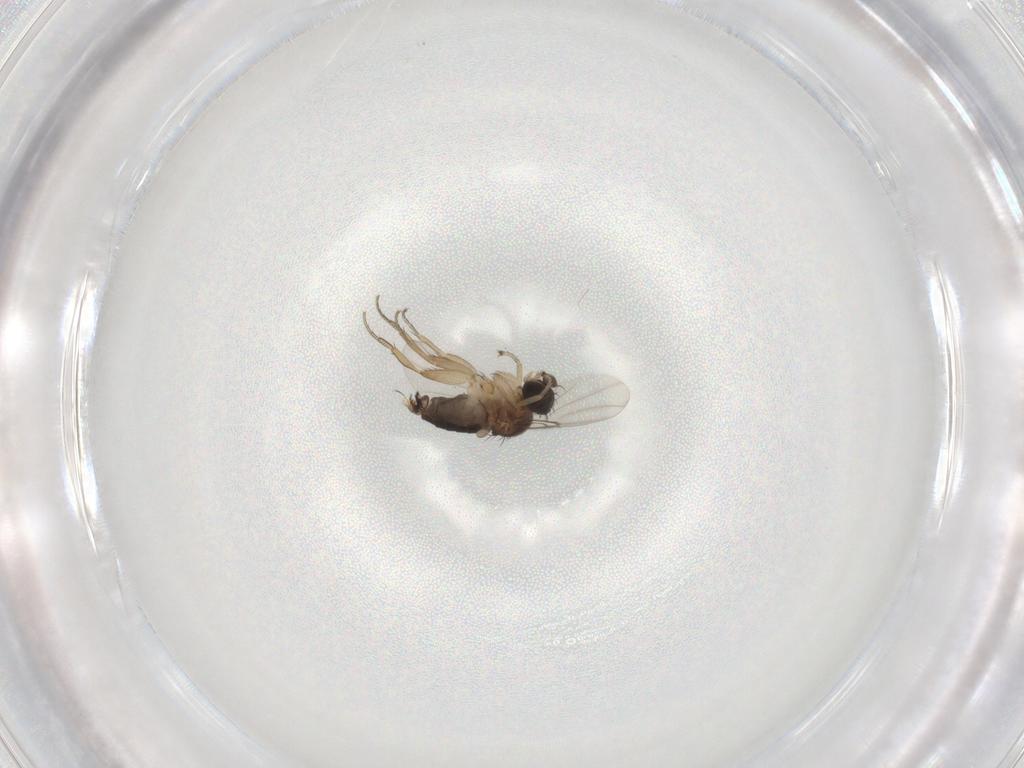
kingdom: Animalia
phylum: Arthropoda
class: Insecta
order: Diptera
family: Phoridae
